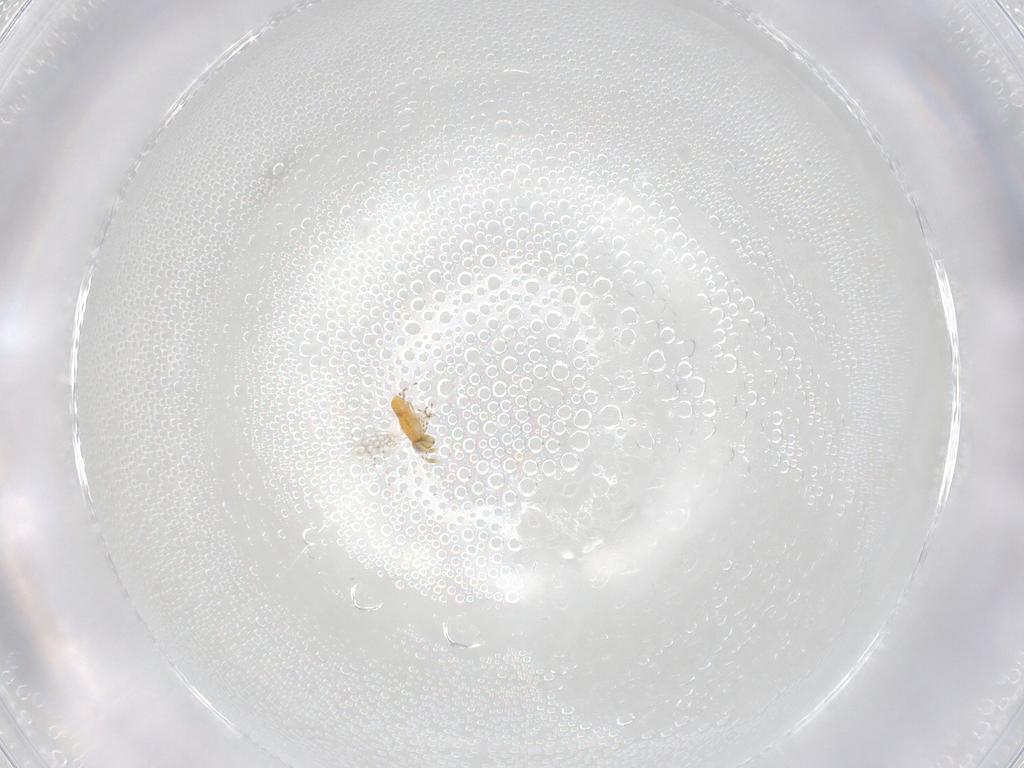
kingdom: Animalia
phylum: Arthropoda
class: Insecta
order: Hymenoptera
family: Aphelinidae
